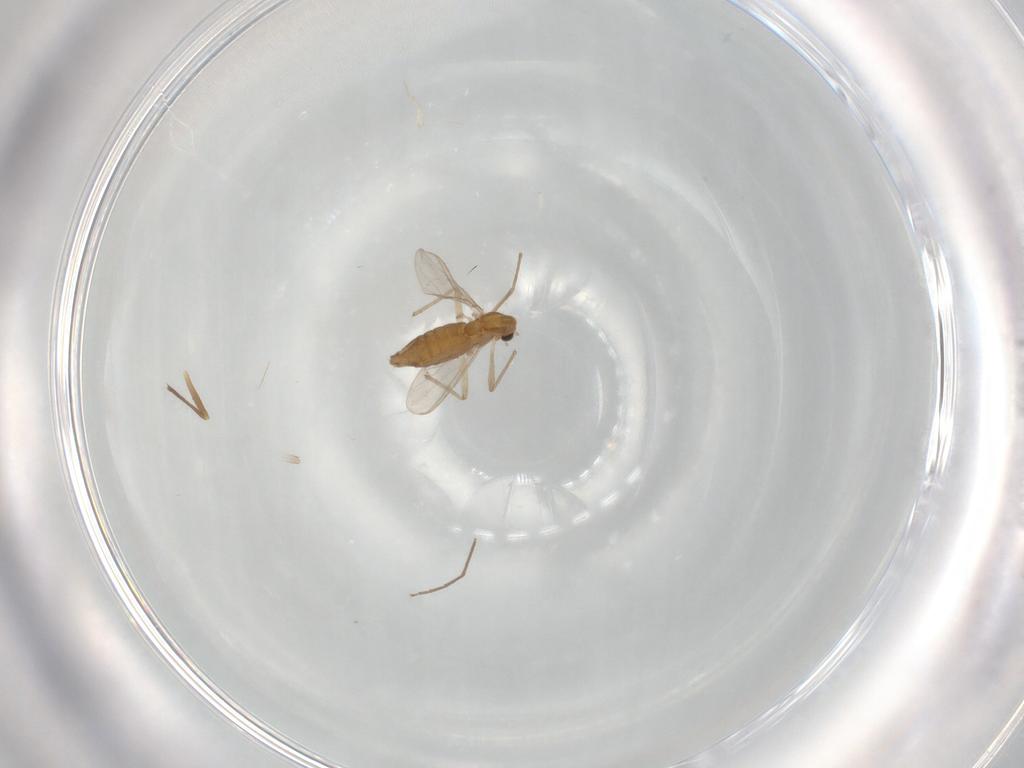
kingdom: Animalia
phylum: Arthropoda
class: Insecta
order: Diptera
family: Chironomidae
